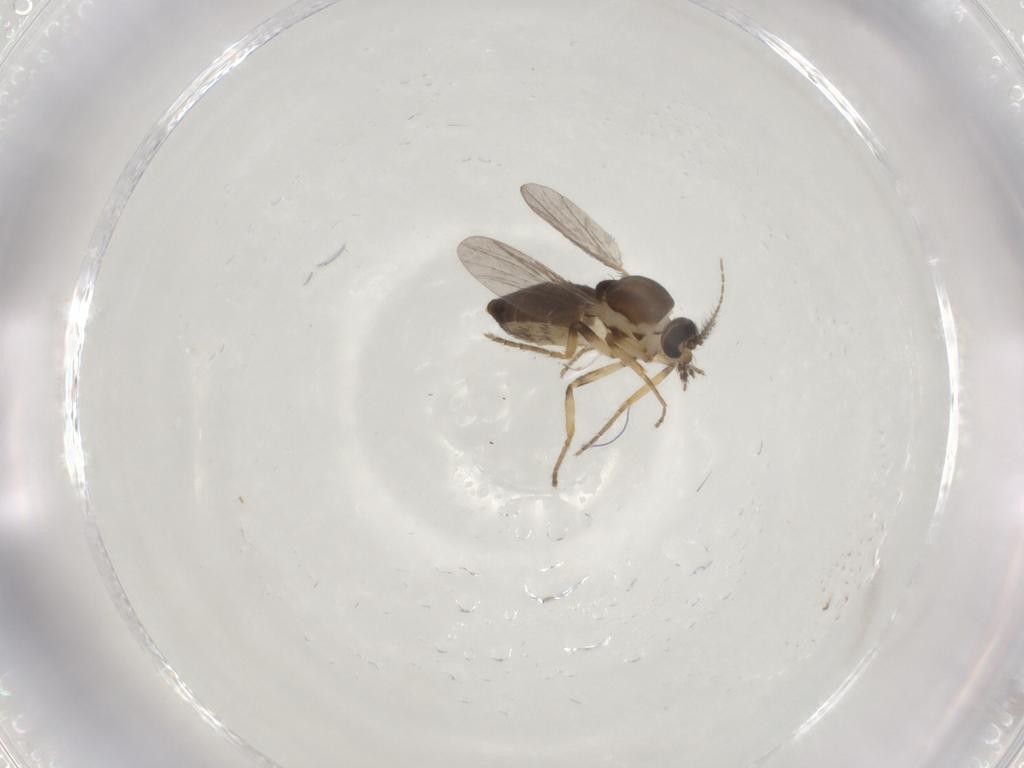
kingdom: Animalia
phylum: Arthropoda
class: Insecta
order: Diptera
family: Ceratopogonidae
